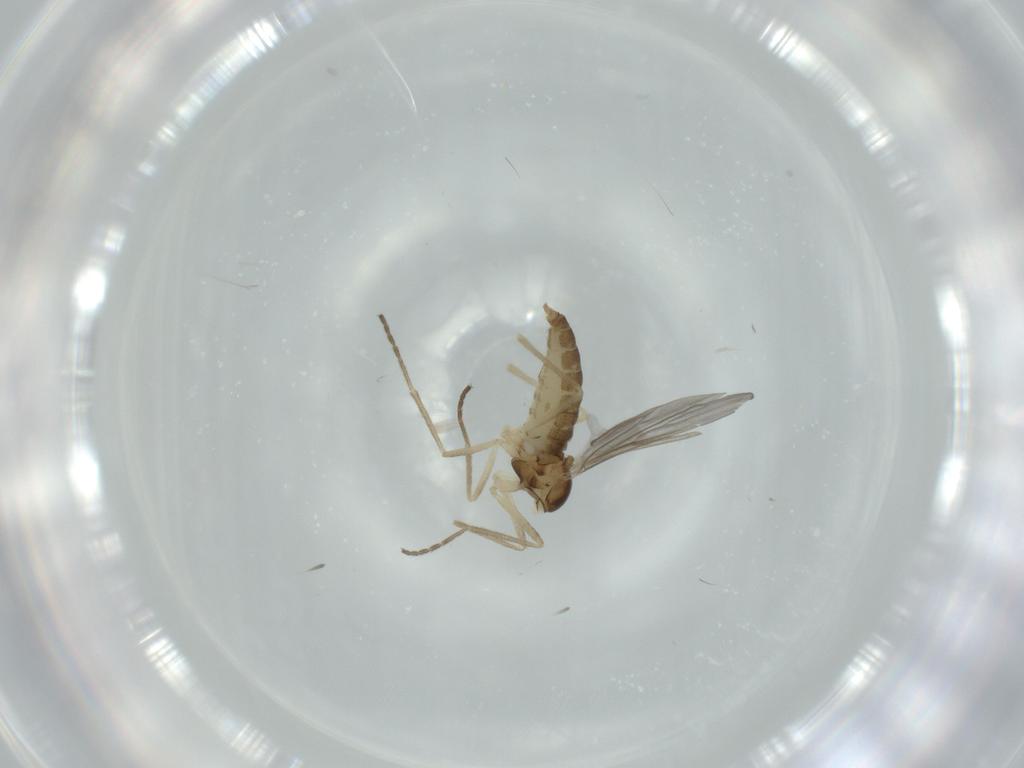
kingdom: Animalia
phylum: Arthropoda
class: Insecta
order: Diptera
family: Cecidomyiidae
